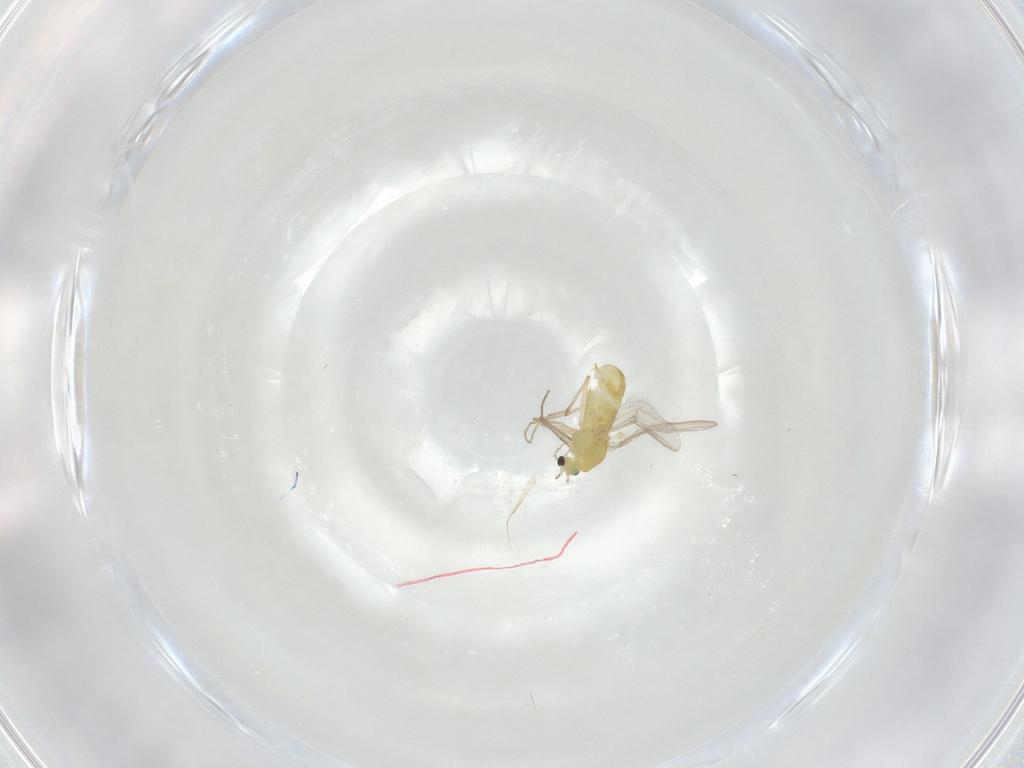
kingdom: Animalia
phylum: Arthropoda
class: Insecta
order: Diptera
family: Chironomidae
